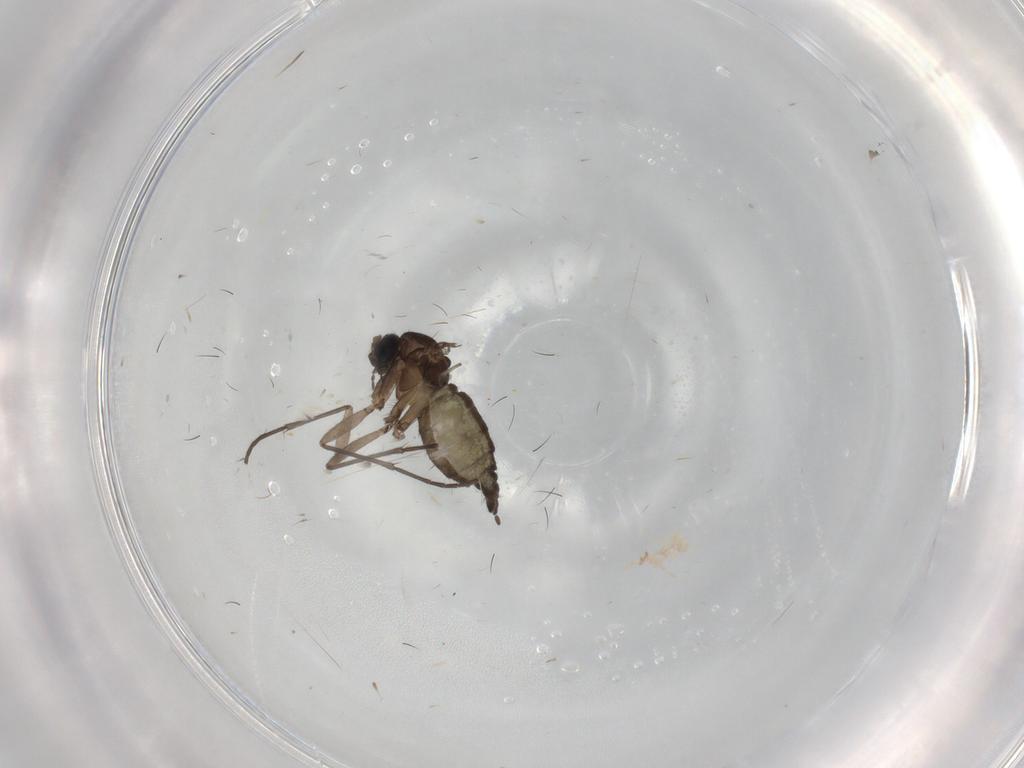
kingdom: Animalia
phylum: Arthropoda
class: Insecta
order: Diptera
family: Sciaridae
